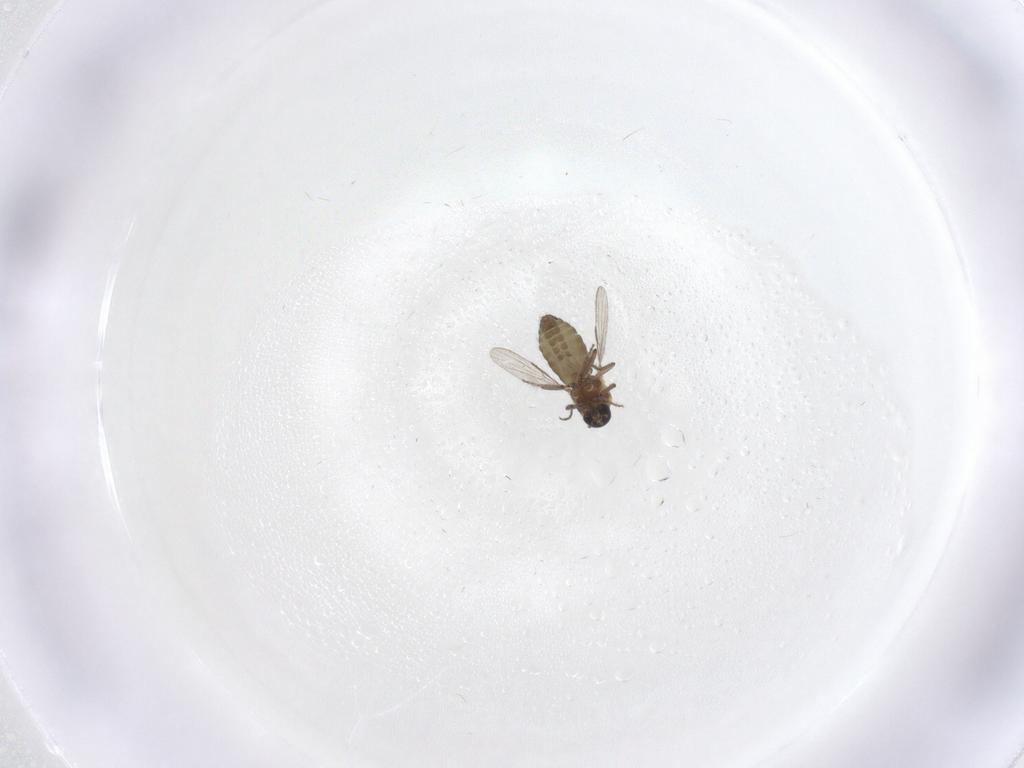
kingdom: Animalia
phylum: Arthropoda
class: Insecta
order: Diptera
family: Ceratopogonidae
